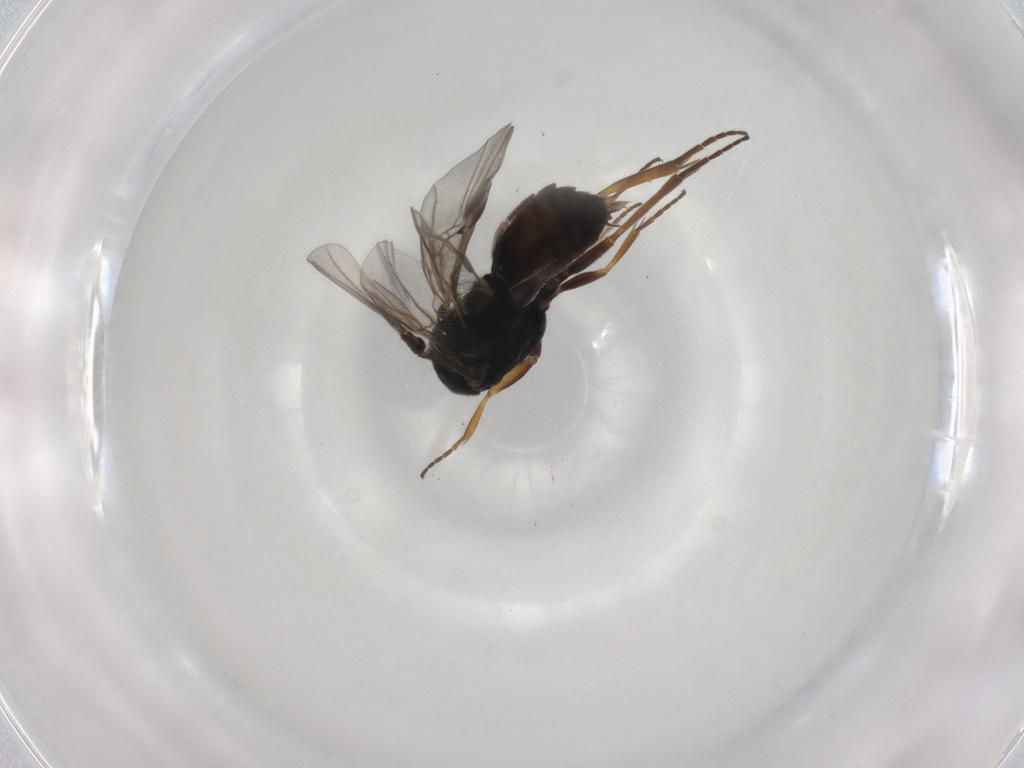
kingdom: Animalia
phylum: Arthropoda
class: Insecta
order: Hymenoptera
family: Braconidae
